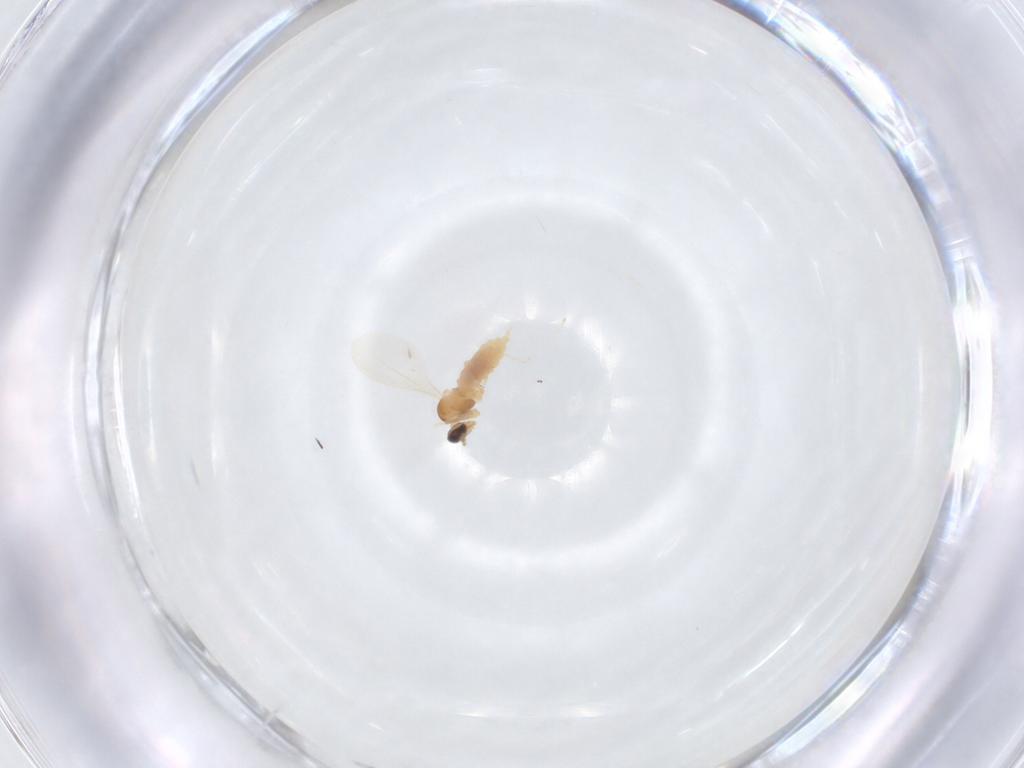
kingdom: Animalia
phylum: Arthropoda
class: Insecta
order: Diptera
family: Cecidomyiidae
